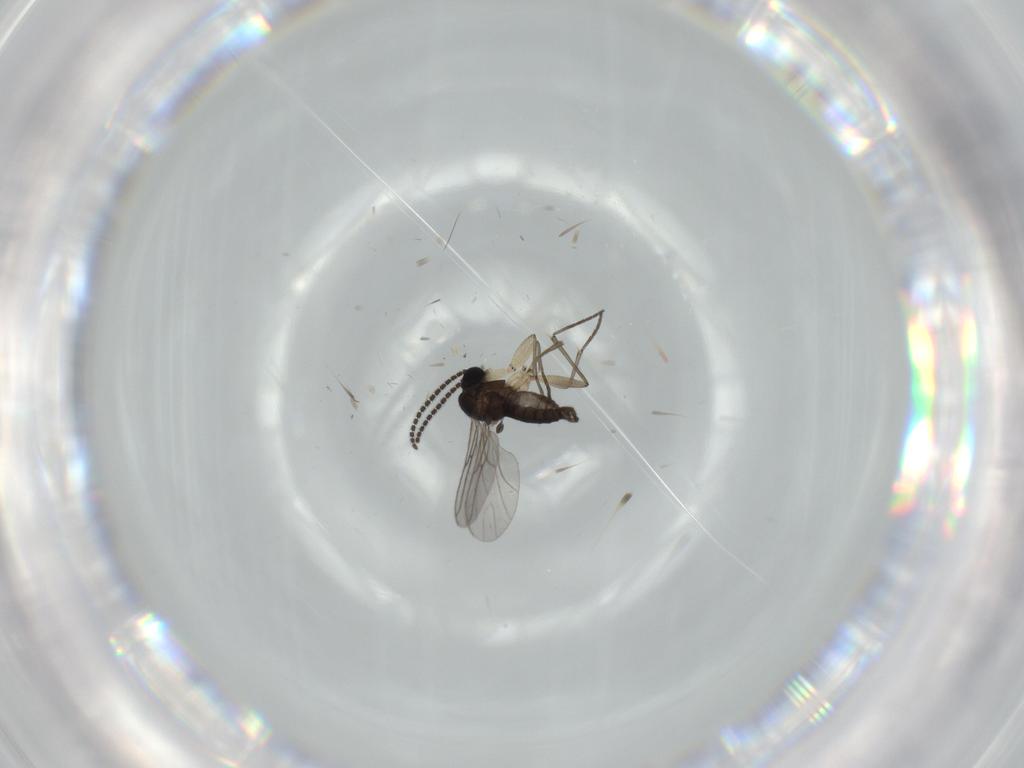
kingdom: Animalia
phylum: Arthropoda
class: Insecta
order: Diptera
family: Sciaridae
